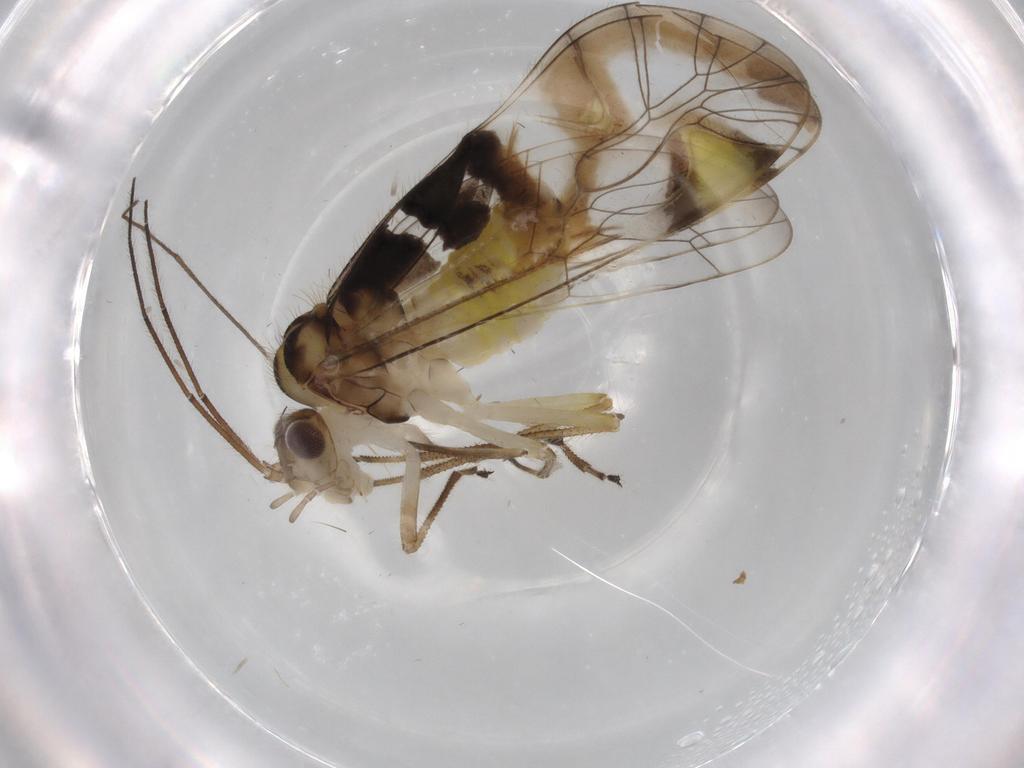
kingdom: Animalia
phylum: Arthropoda
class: Insecta
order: Psocodea
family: Amphipsocidae
